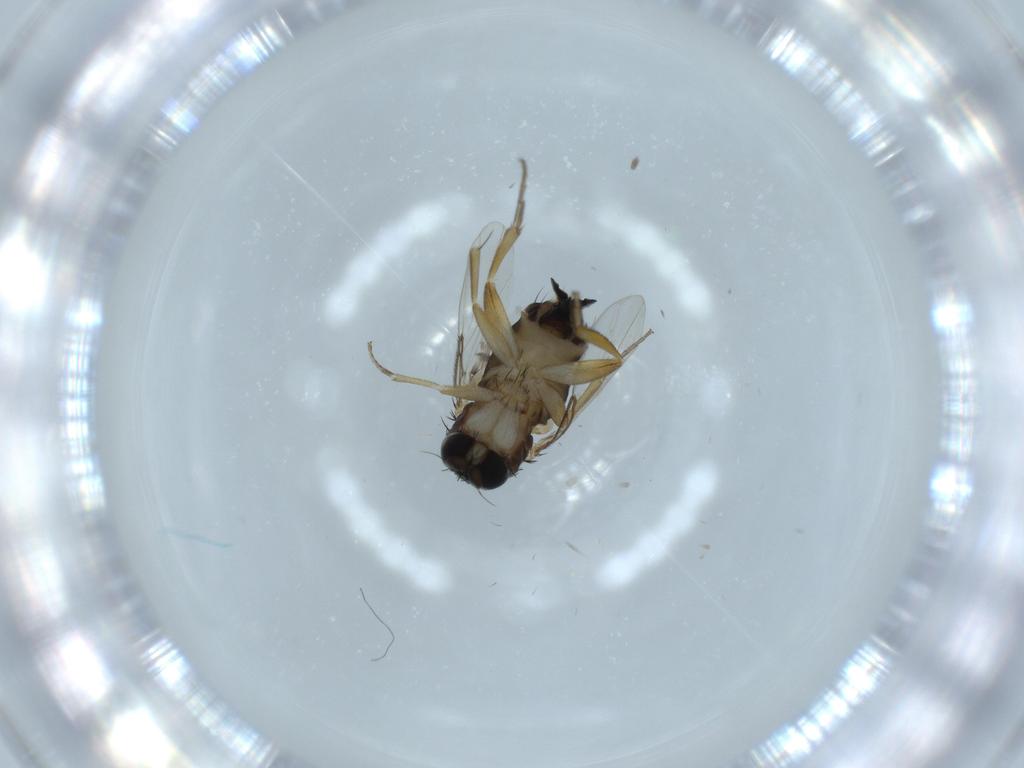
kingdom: Animalia
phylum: Arthropoda
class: Insecta
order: Diptera
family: Phoridae
